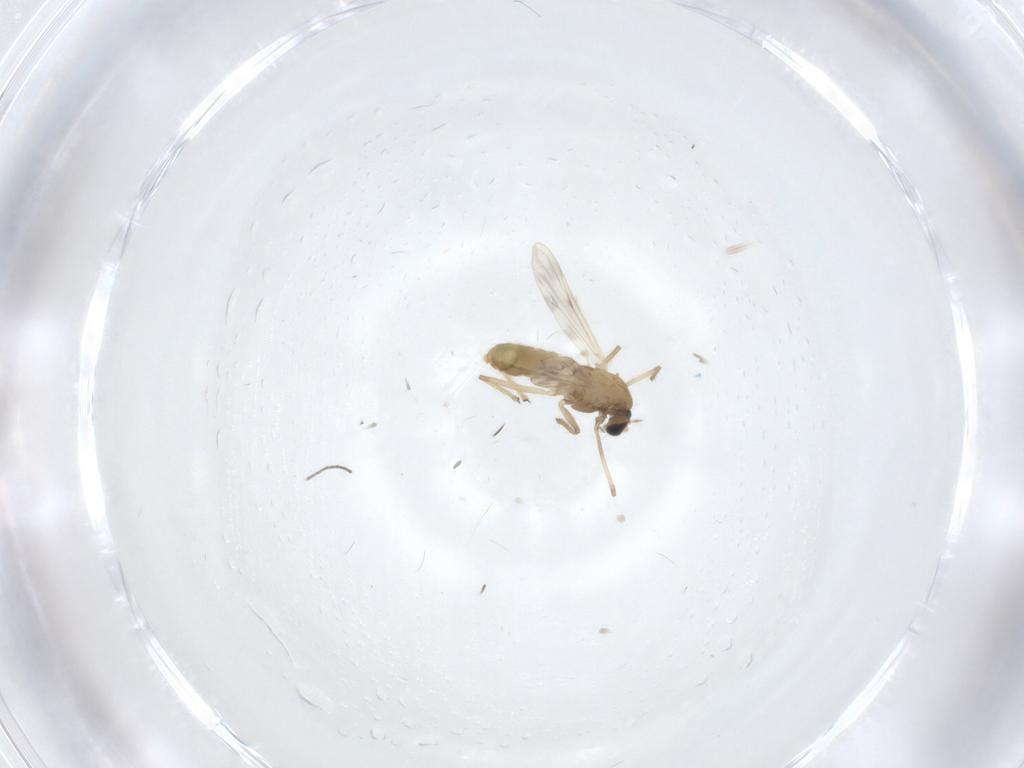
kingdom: Animalia
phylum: Arthropoda
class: Insecta
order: Diptera
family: Chironomidae
